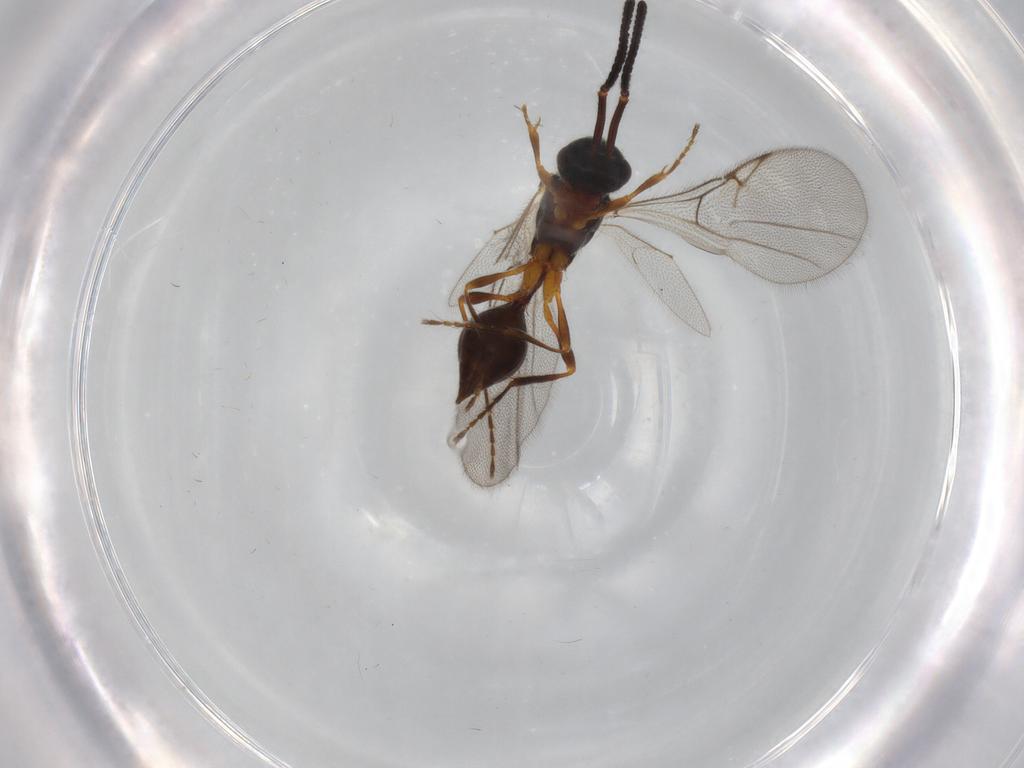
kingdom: Animalia
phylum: Arthropoda
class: Insecta
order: Hymenoptera
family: Diapriidae
